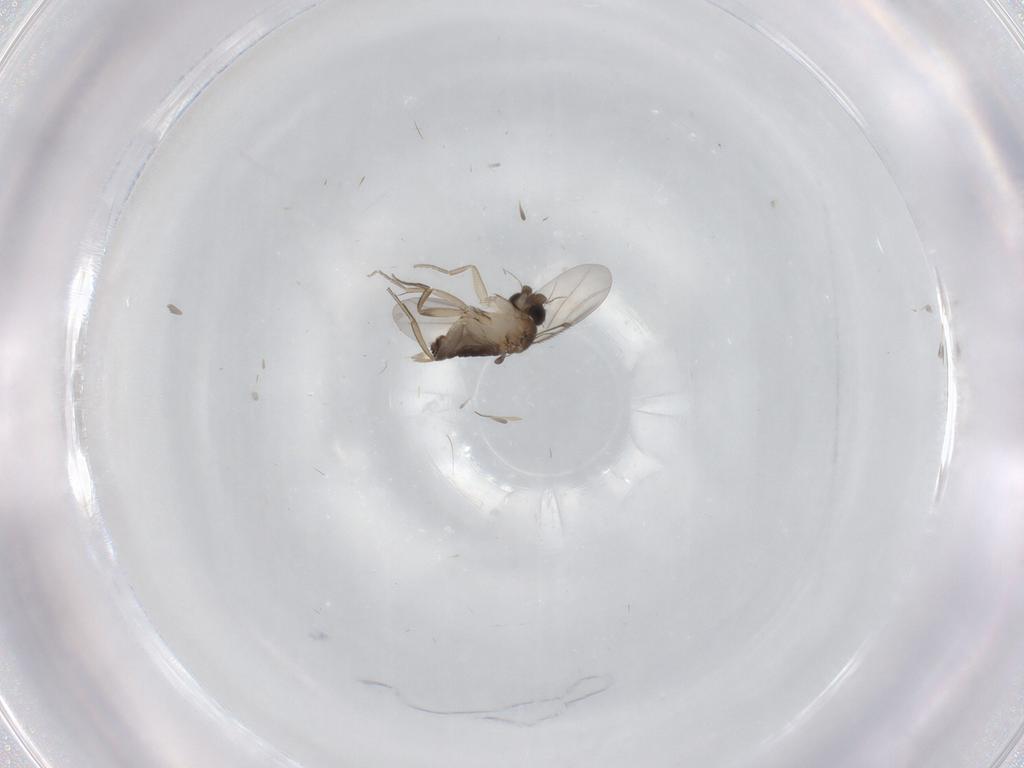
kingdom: Animalia
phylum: Arthropoda
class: Insecta
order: Diptera
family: Phoridae
